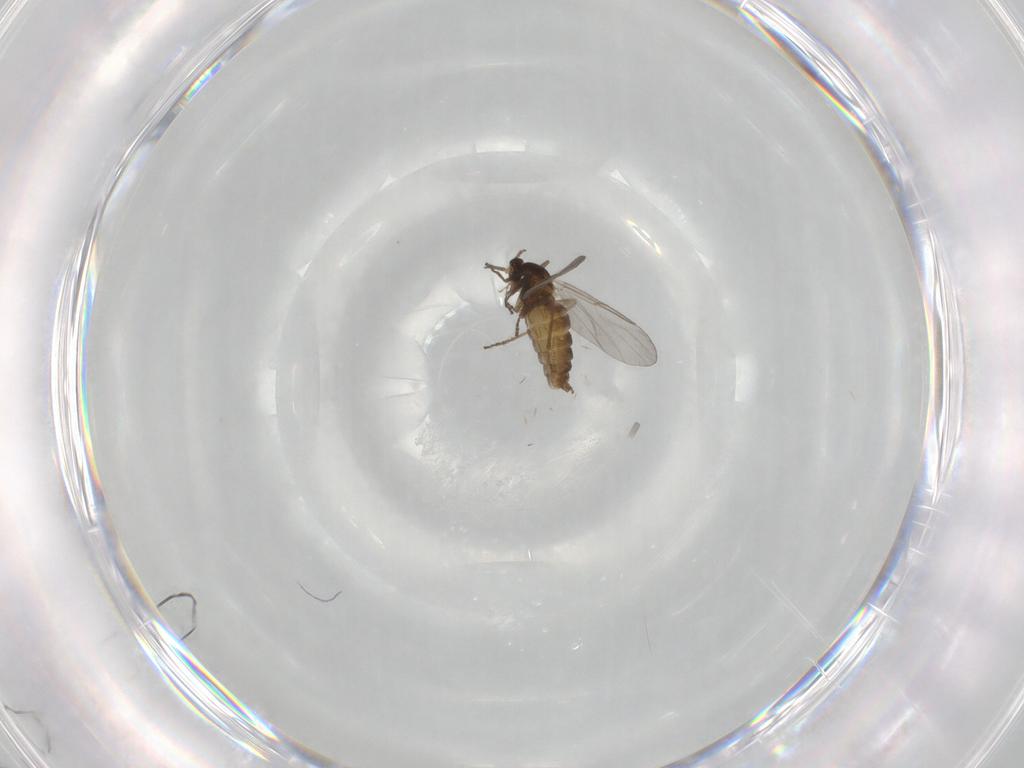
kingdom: Animalia
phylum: Arthropoda
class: Insecta
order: Diptera
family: Cecidomyiidae
